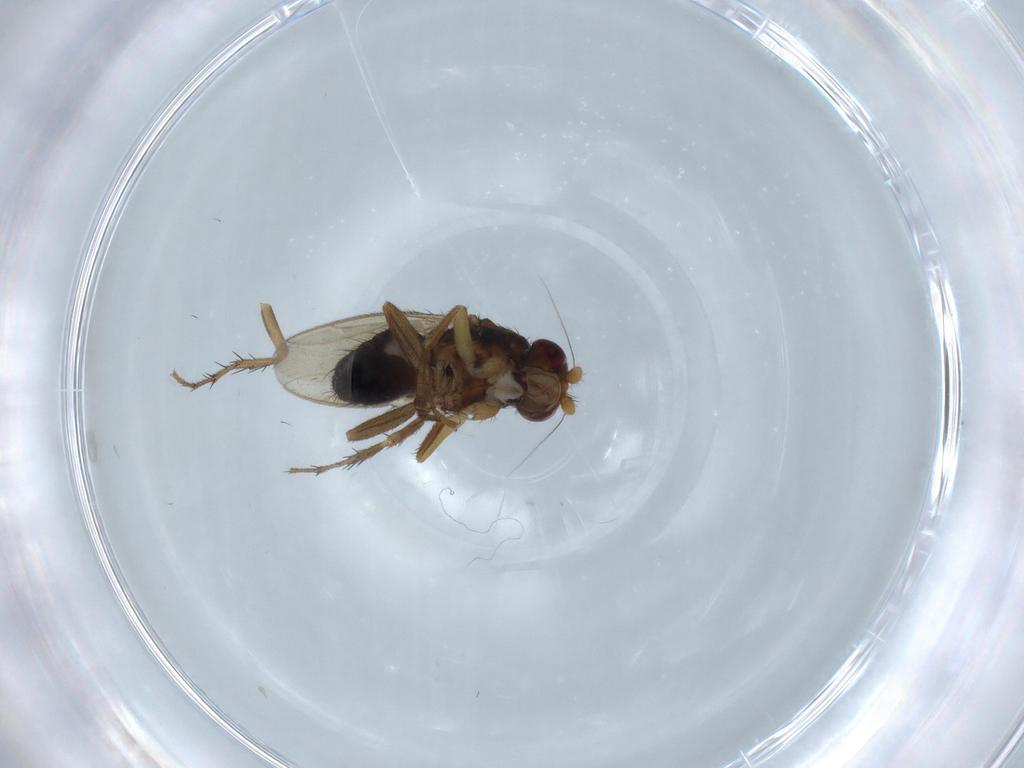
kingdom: Animalia
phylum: Arthropoda
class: Insecta
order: Diptera
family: Sphaeroceridae
